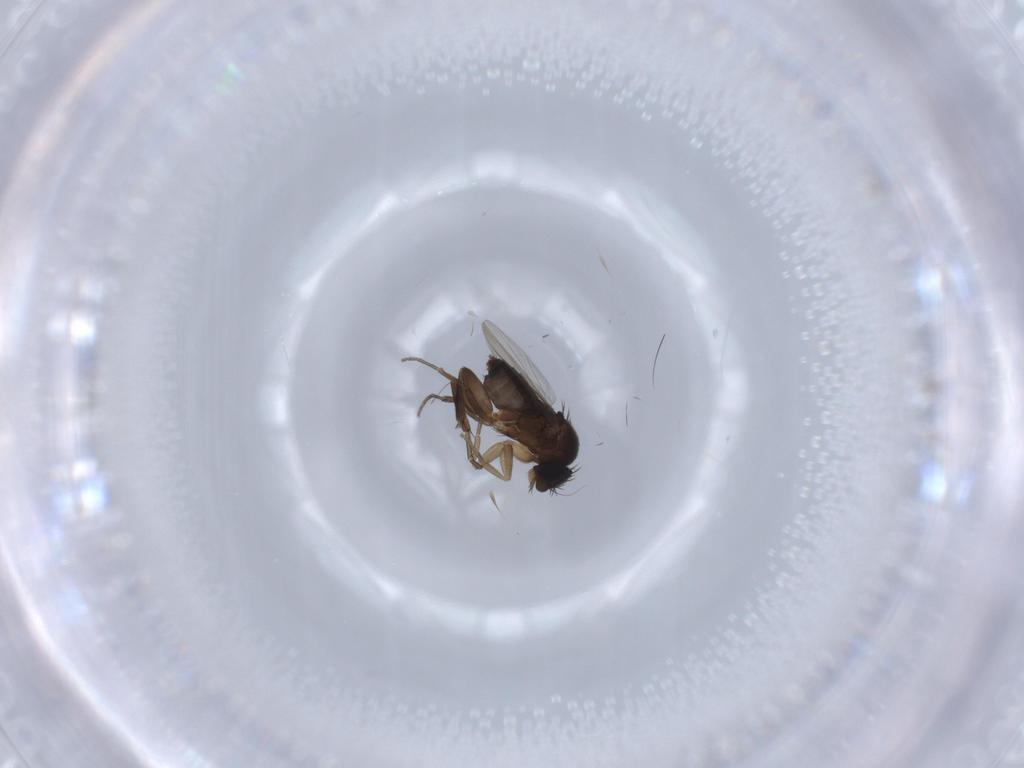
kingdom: Animalia
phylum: Arthropoda
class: Insecta
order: Diptera
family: Phoridae
